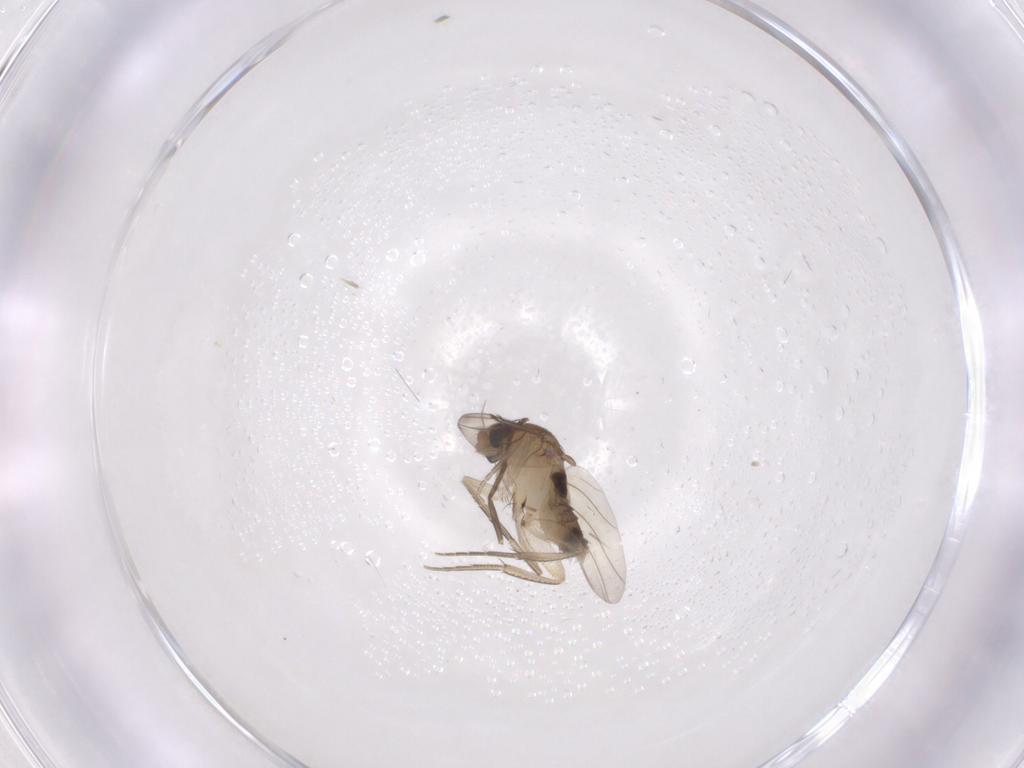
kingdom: Animalia
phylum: Arthropoda
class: Insecta
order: Diptera
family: Phoridae
